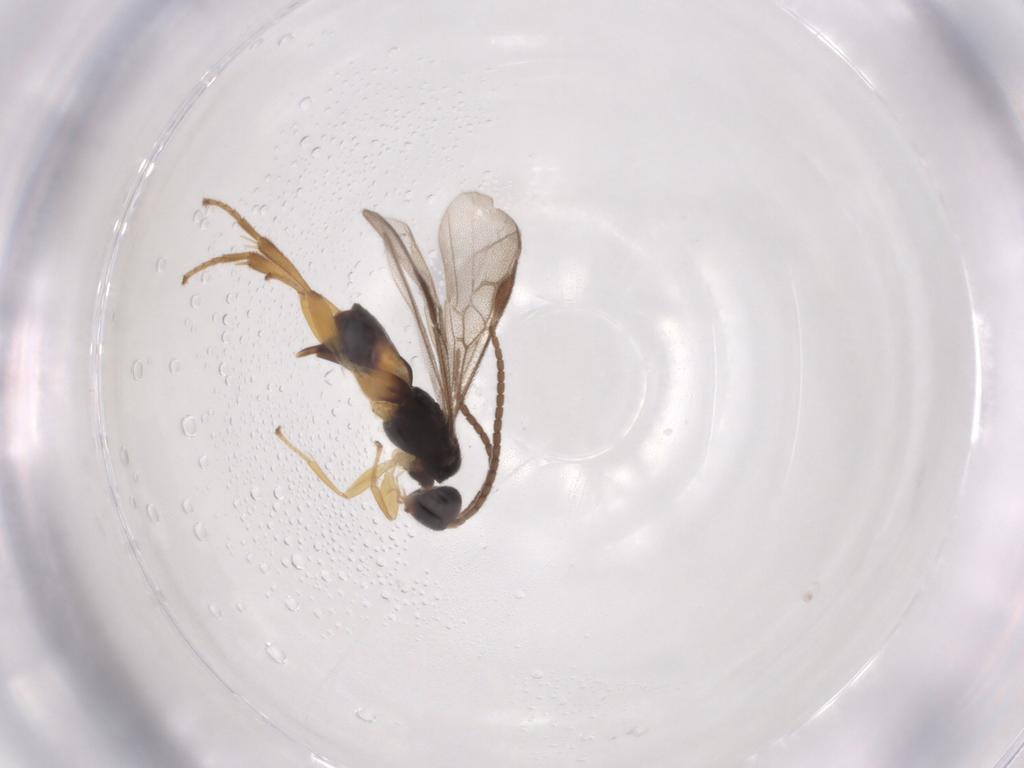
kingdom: Animalia
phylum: Arthropoda
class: Insecta
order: Hymenoptera
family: Braconidae
